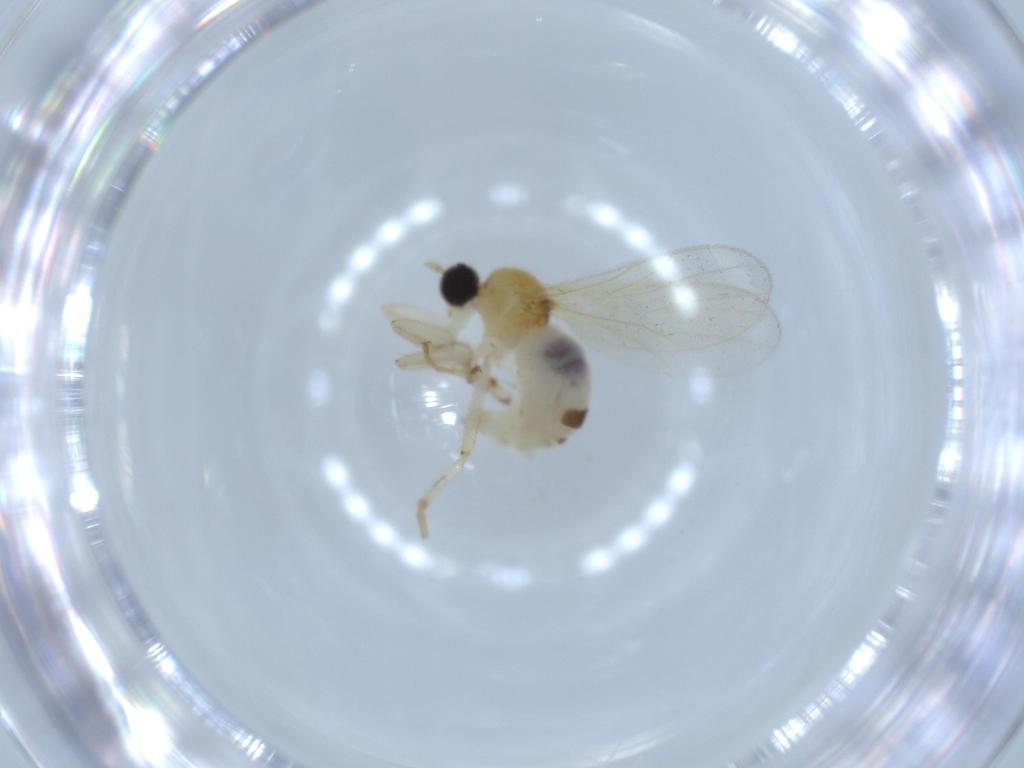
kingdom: Animalia
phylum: Arthropoda
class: Insecta
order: Diptera
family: Hybotidae
